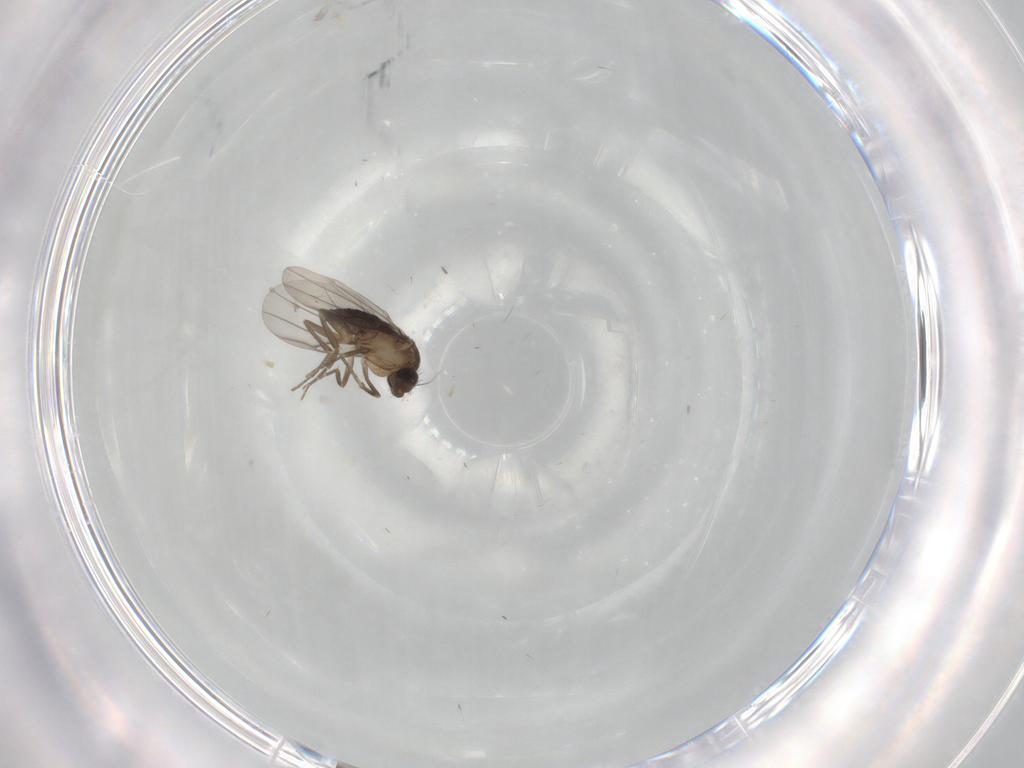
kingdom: Animalia
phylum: Arthropoda
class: Insecta
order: Diptera
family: Phoridae
